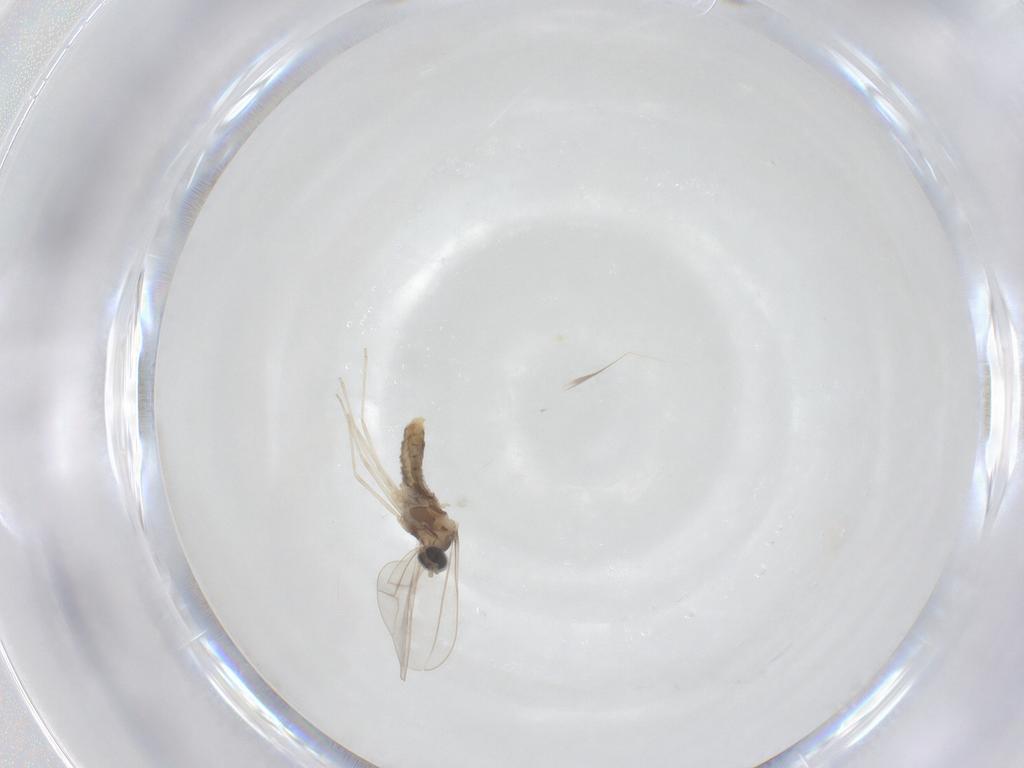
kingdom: Animalia
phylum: Arthropoda
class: Insecta
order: Diptera
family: Cecidomyiidae
